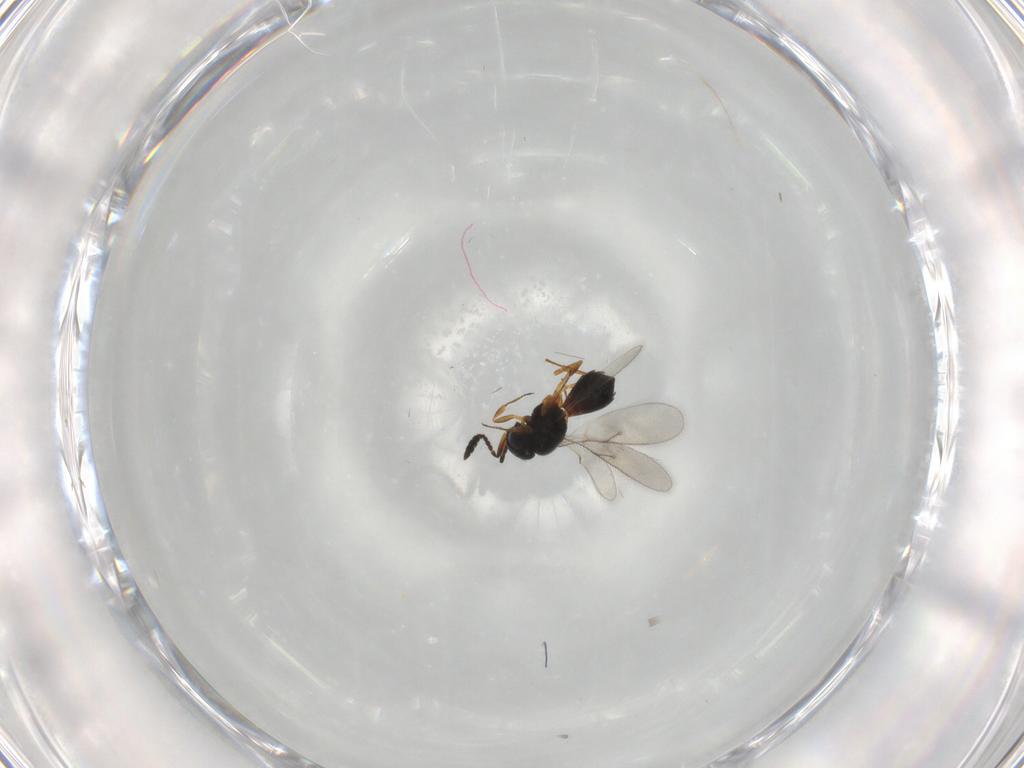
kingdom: Animalia
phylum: Arthropoda
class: Insecta
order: Hymenoptera
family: Scelionidae
